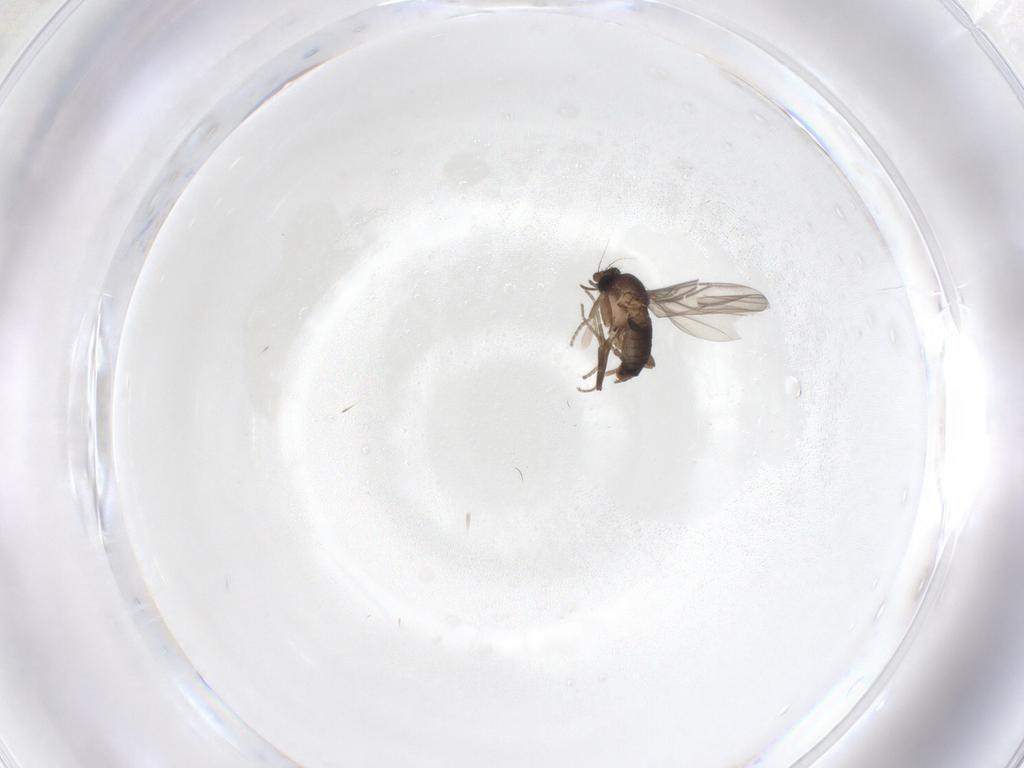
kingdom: Animalia
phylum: Arthropoda
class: Insecta
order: Diptera
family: Phoridae
